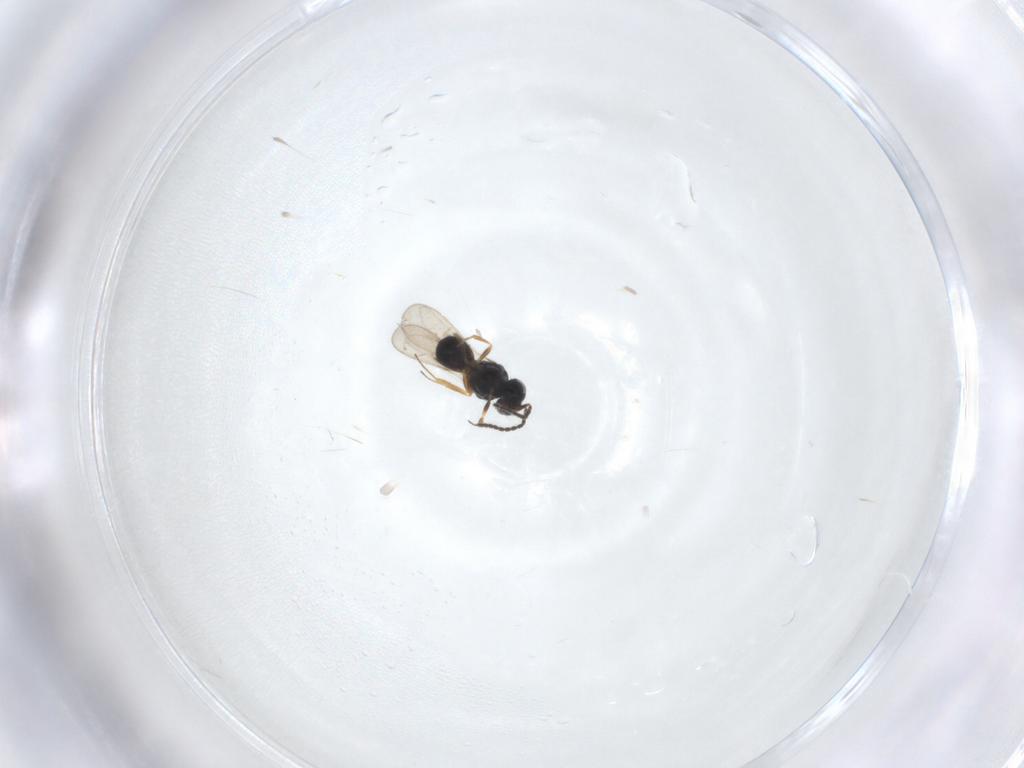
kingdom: Animalia
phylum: Arthropoda
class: Insecta
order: Hymenoptera
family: Scelionidae
